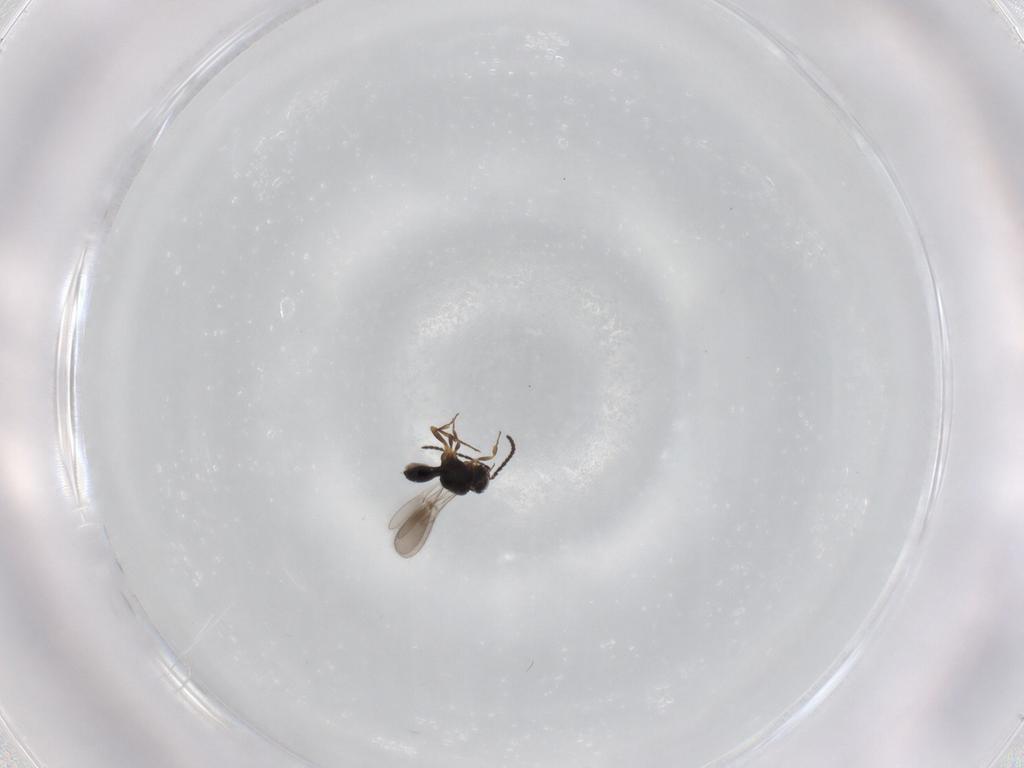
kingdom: Animalia
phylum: Arthropoda
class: Insecta
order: Hymenoptera
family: Scelionidae
